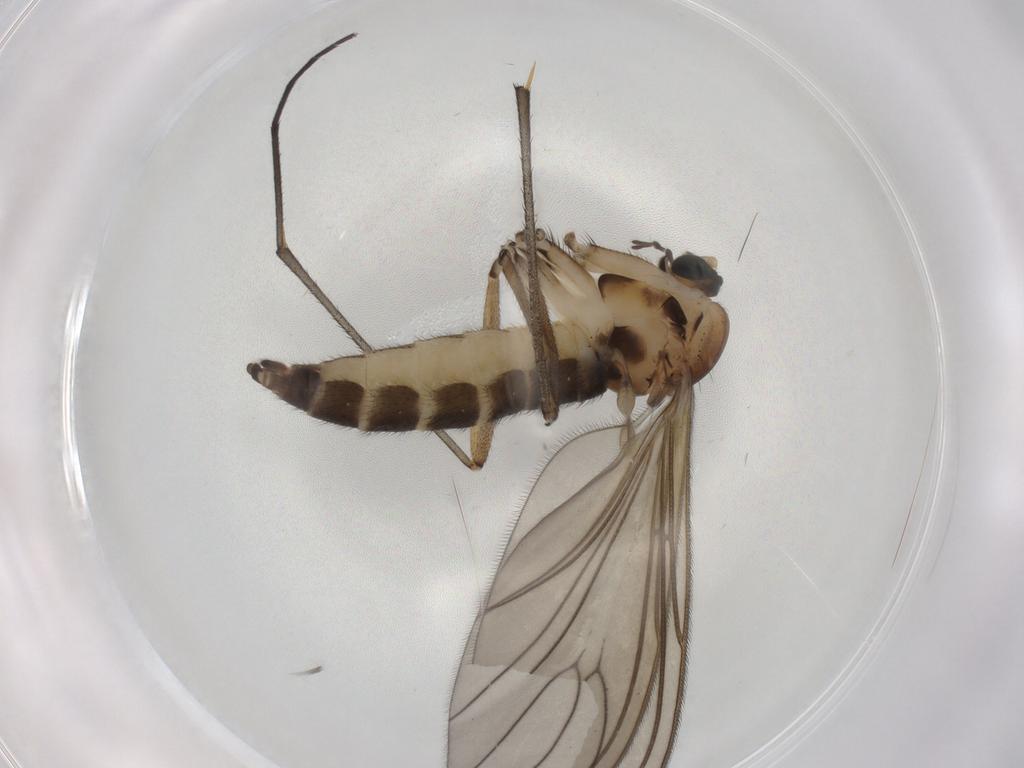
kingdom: Animalia
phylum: Arthropoda
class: Insecta
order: Diptera
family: Sciaridae
